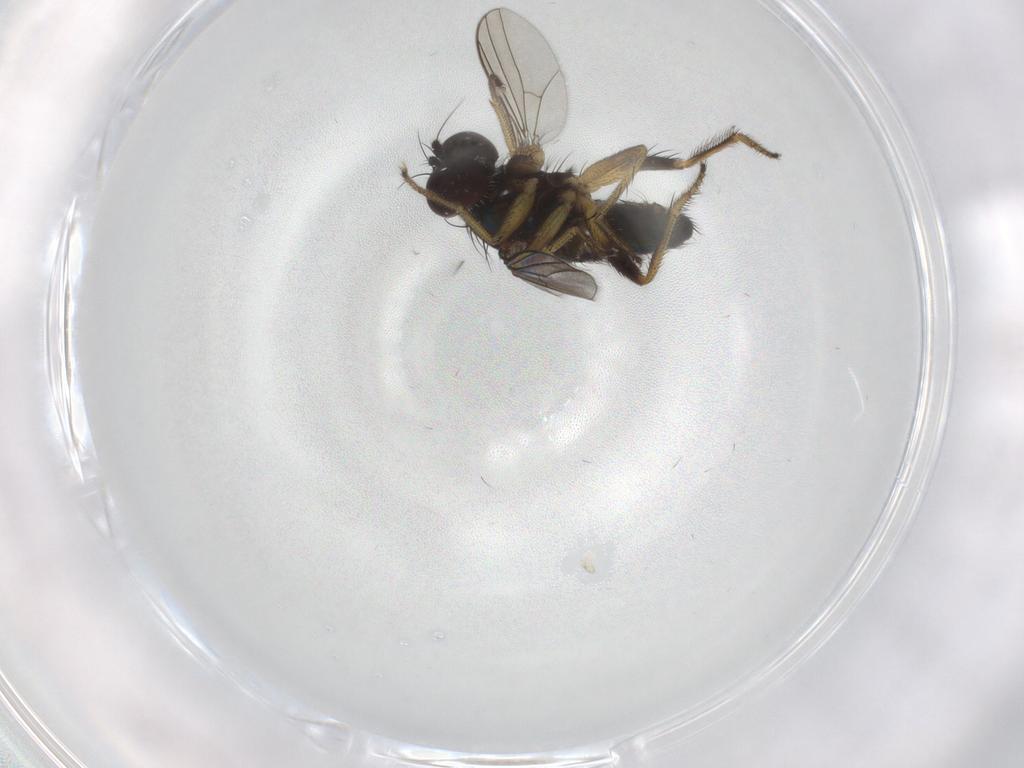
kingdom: Animalia
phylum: Arthropoda
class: Insecta
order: Diptera
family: Dolichopodidae
